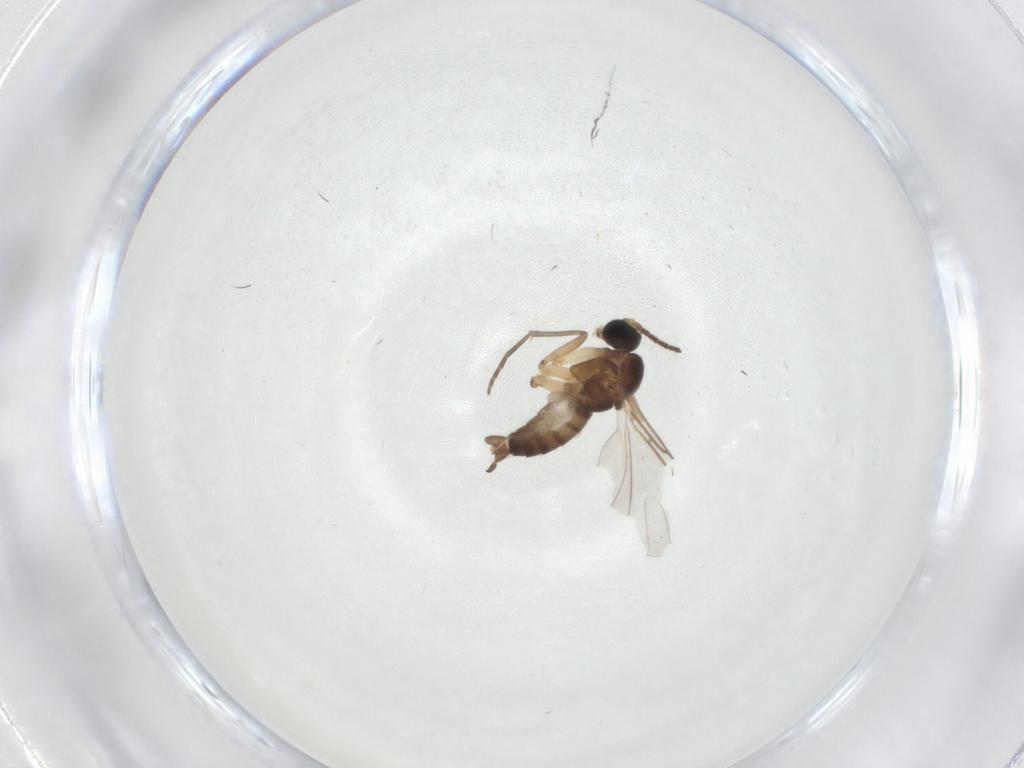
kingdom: Animalia
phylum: Arthropoda
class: Insecta
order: Diptera
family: Sciaridae
